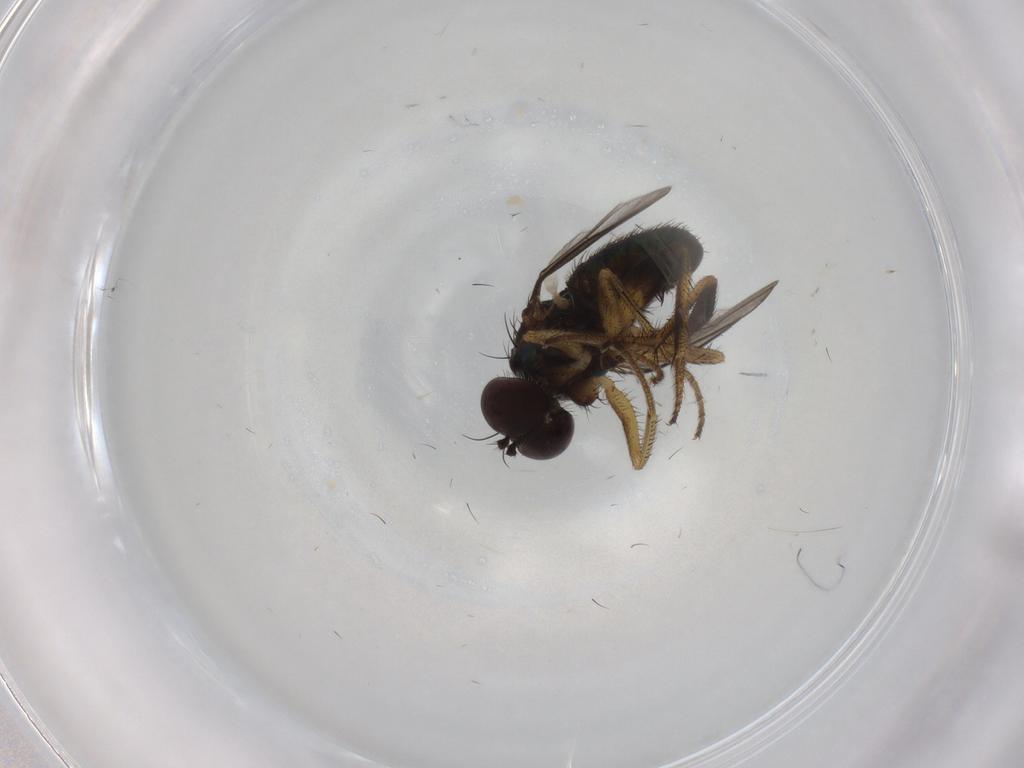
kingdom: Animalia
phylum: Arthropoda
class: Insecta
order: Diptera
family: Dolichopodidae
